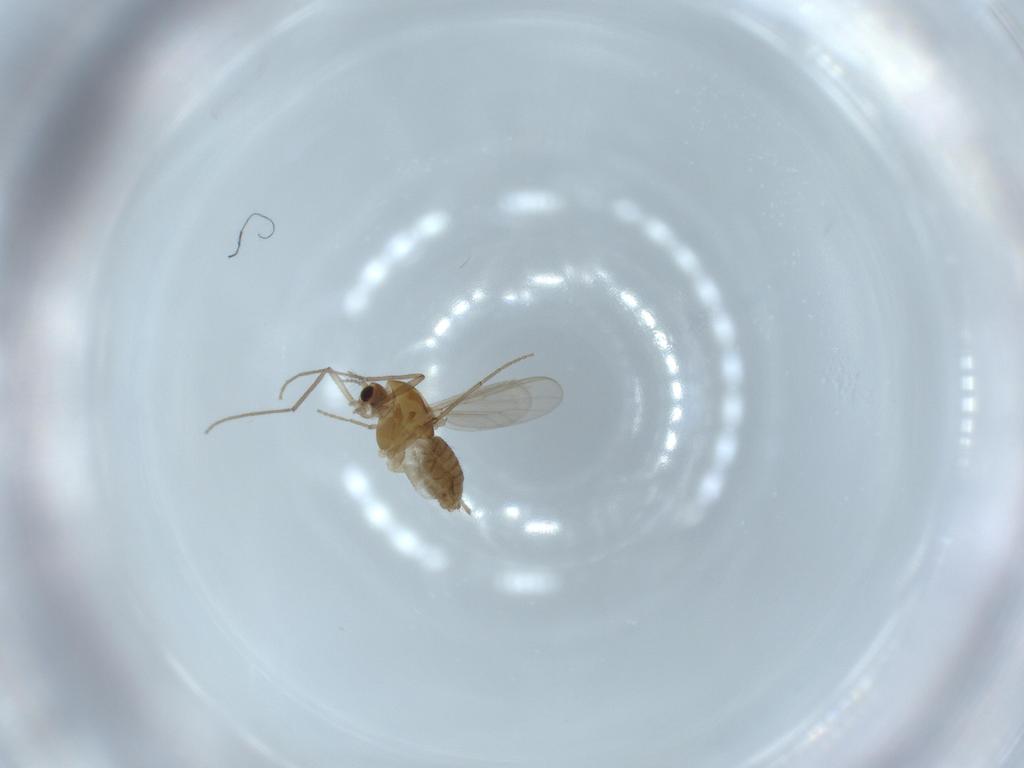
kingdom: Animalia
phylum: Arthropoda
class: Insecta
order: Diptera
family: Chironomidae
